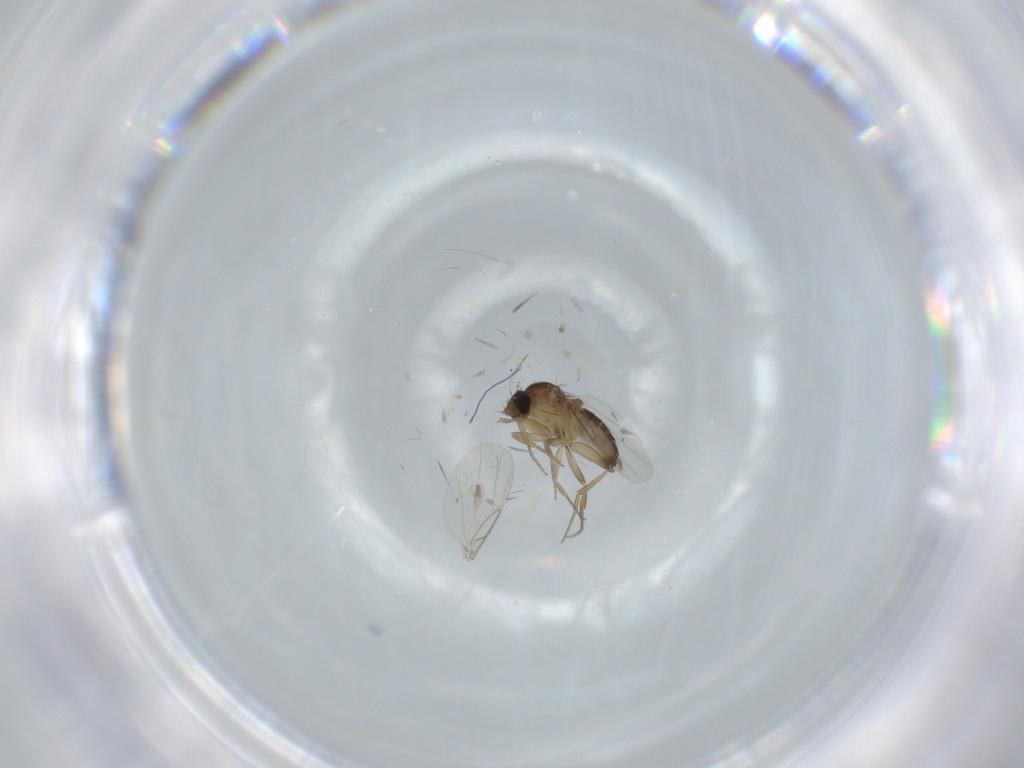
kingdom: Animalia
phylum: Arthropoda
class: Insecta
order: Diptera
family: Phoridae
